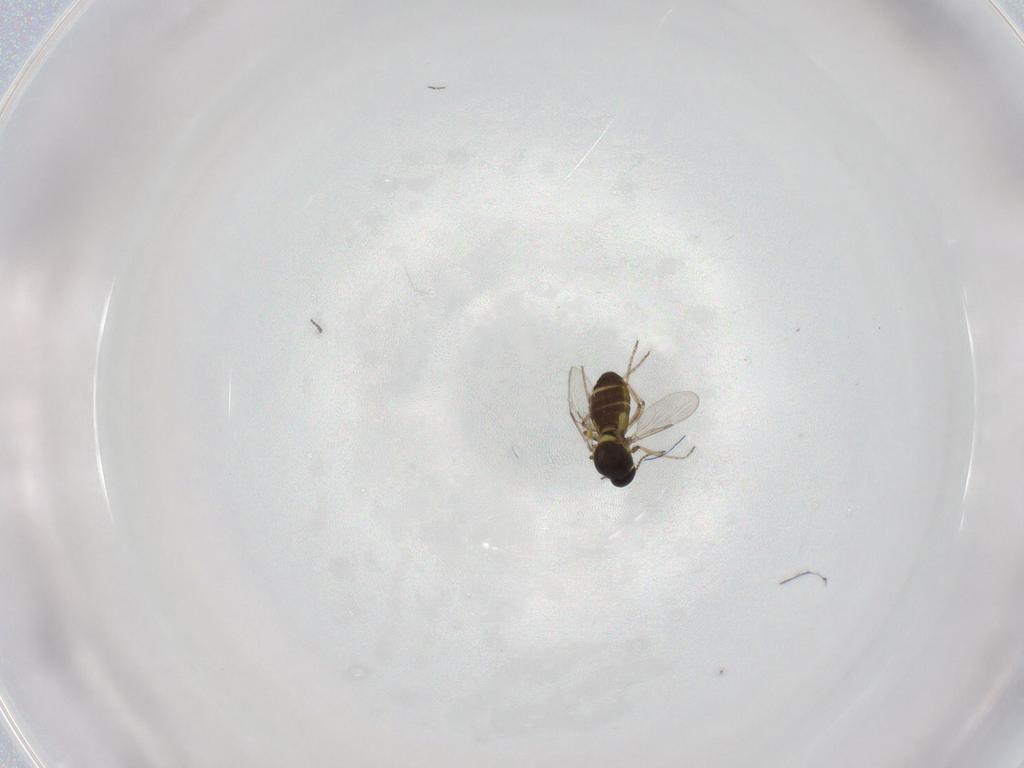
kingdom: Animalia
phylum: Arthropoda
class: Insecta
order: Diptera
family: Ceratopogonidae
